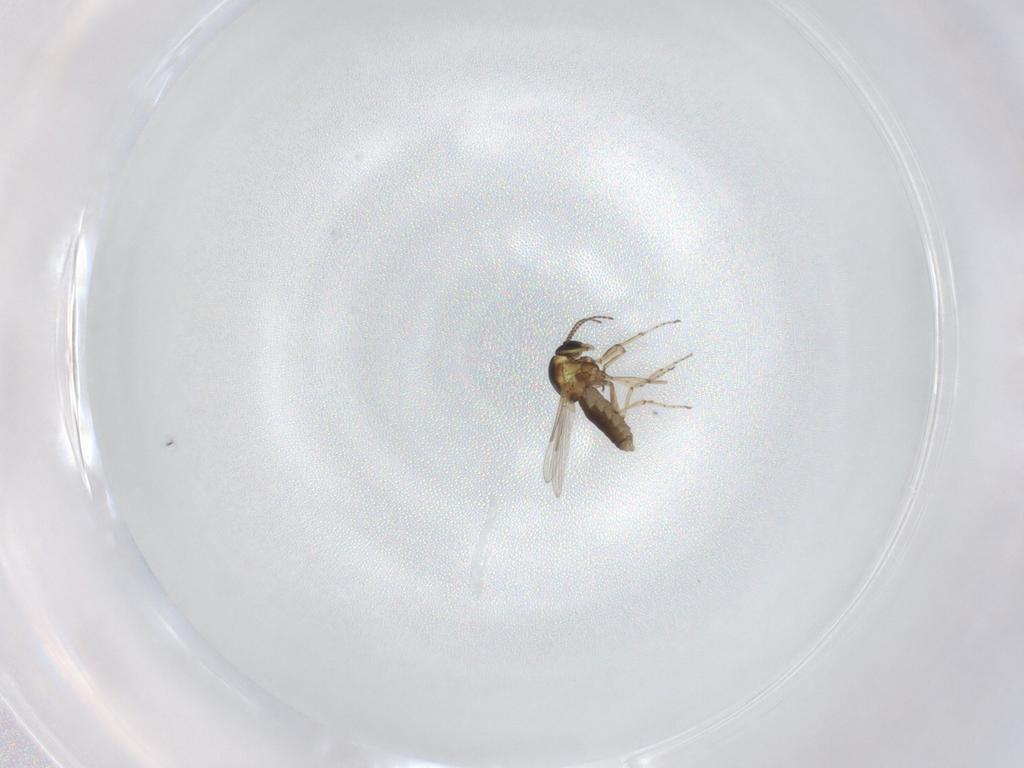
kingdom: Animalia
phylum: Arthropoda
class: Insecta
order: Diptera
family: Ceratopogonidae
